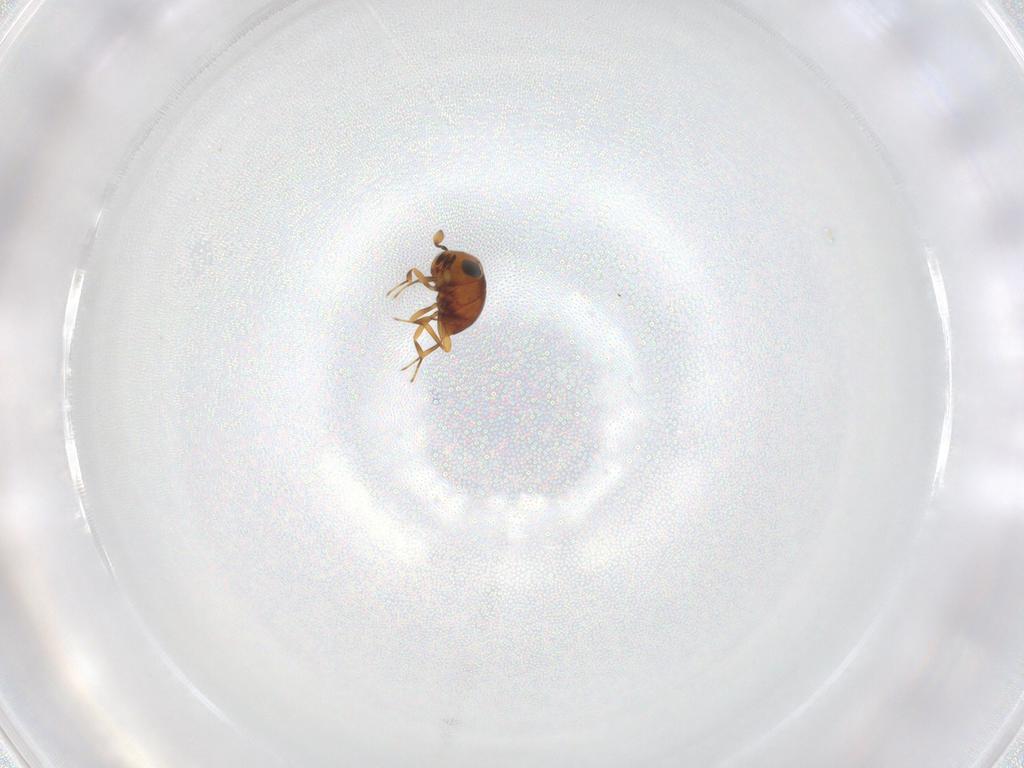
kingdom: Animalia
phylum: Arthropoda
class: Insecta
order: Hymenoptera
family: Scelionidae
